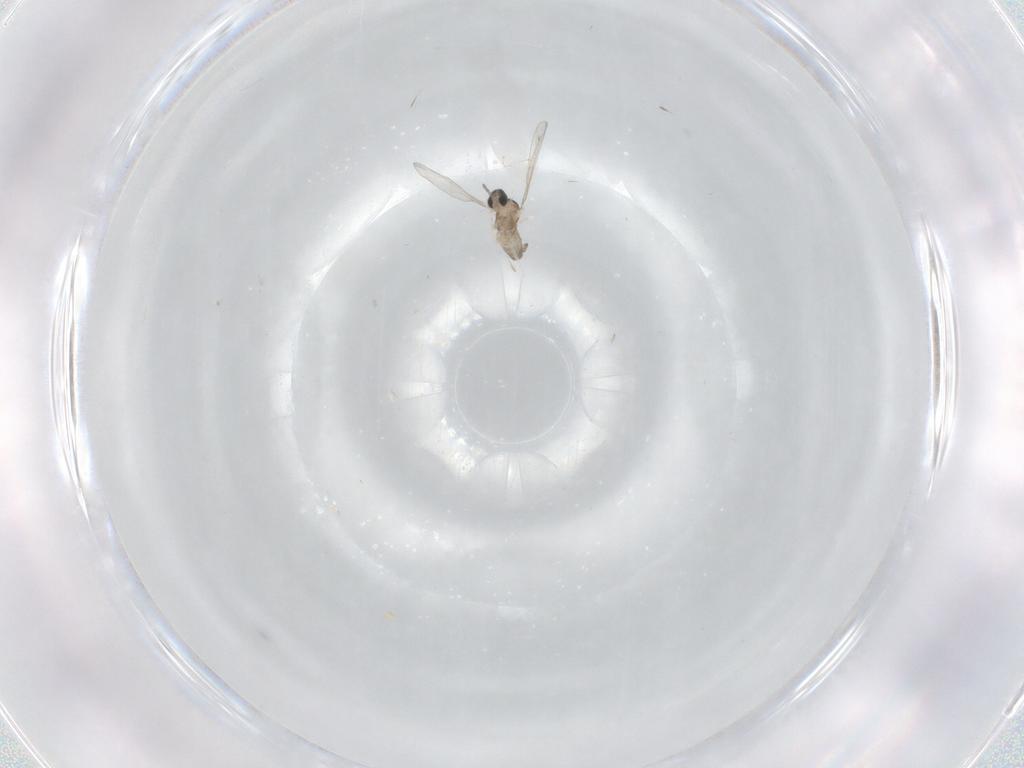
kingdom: Animalia
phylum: Arthropoda
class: Insecta
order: Diptera
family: Cecidomyiidae
